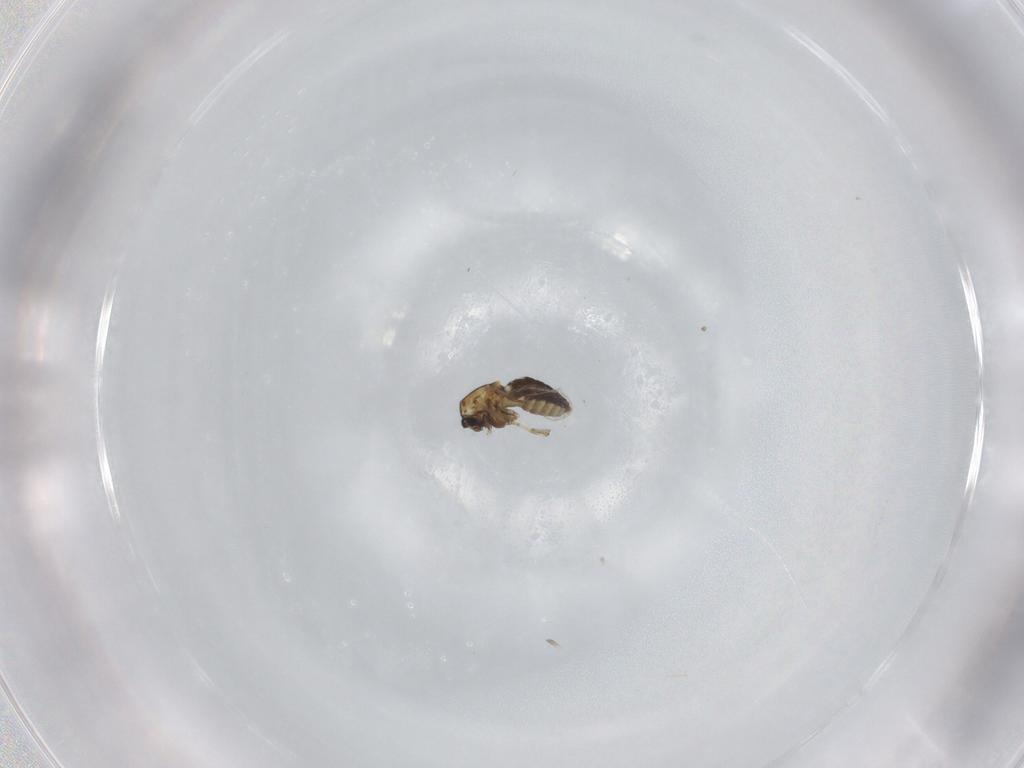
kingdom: Animalia
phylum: Arthropoda
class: Insecta
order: Diptera
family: Ceratopogonidae
